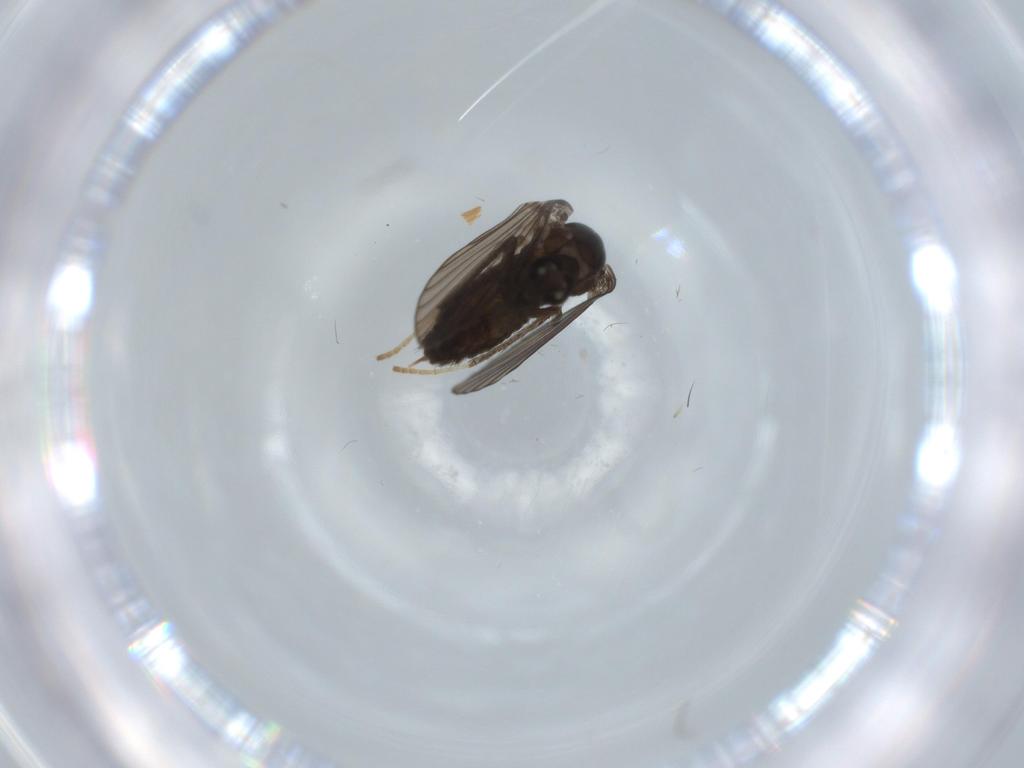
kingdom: Animalia
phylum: Arthropoda
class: Insecta
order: Diptera
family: Psychodidae
